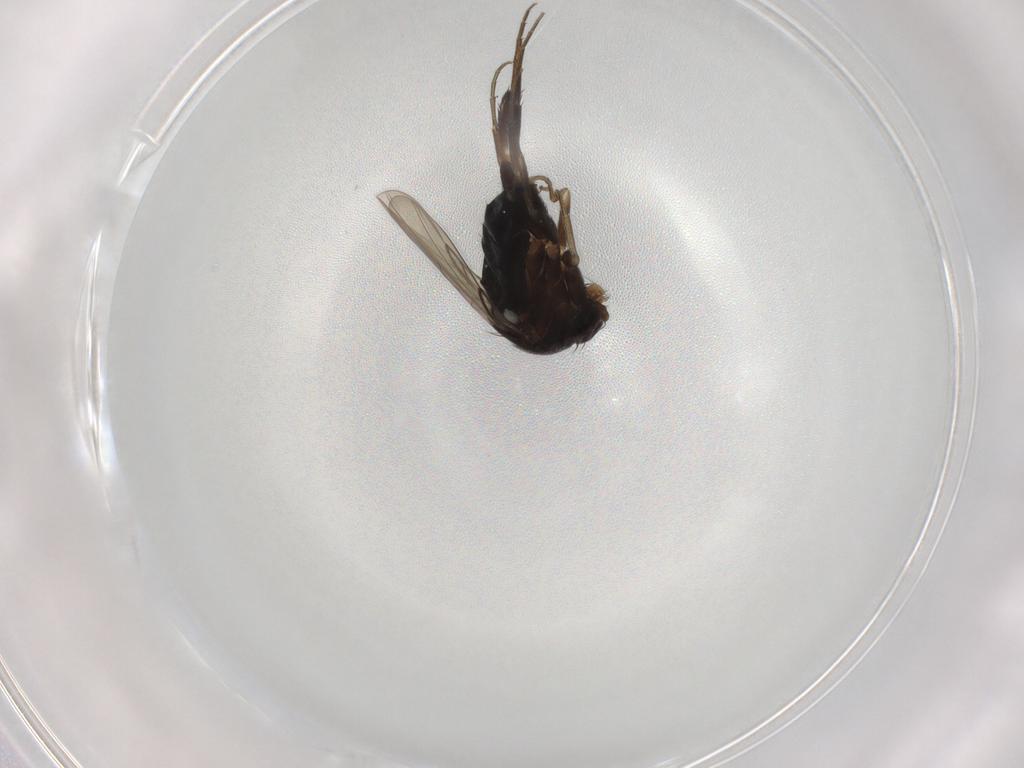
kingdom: Animalia
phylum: Arthropoda
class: Insecta
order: Diptera
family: Phoridae
